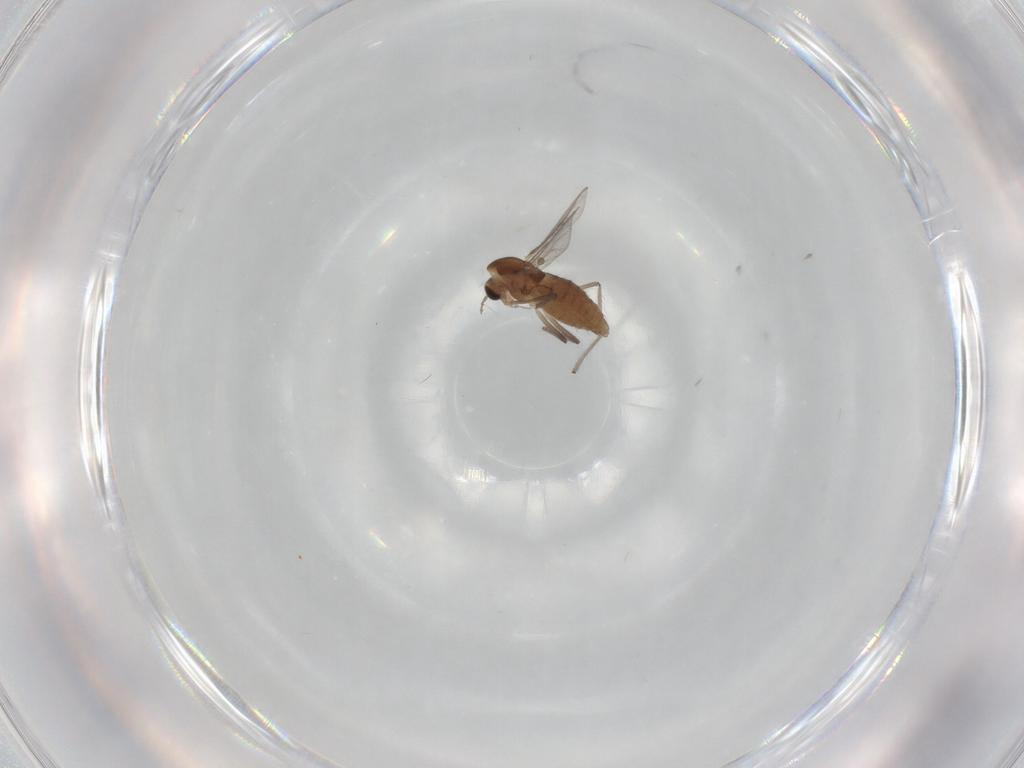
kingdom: Animalia
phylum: Arthropoda
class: Insecta
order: Diptera
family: Chironomidae
